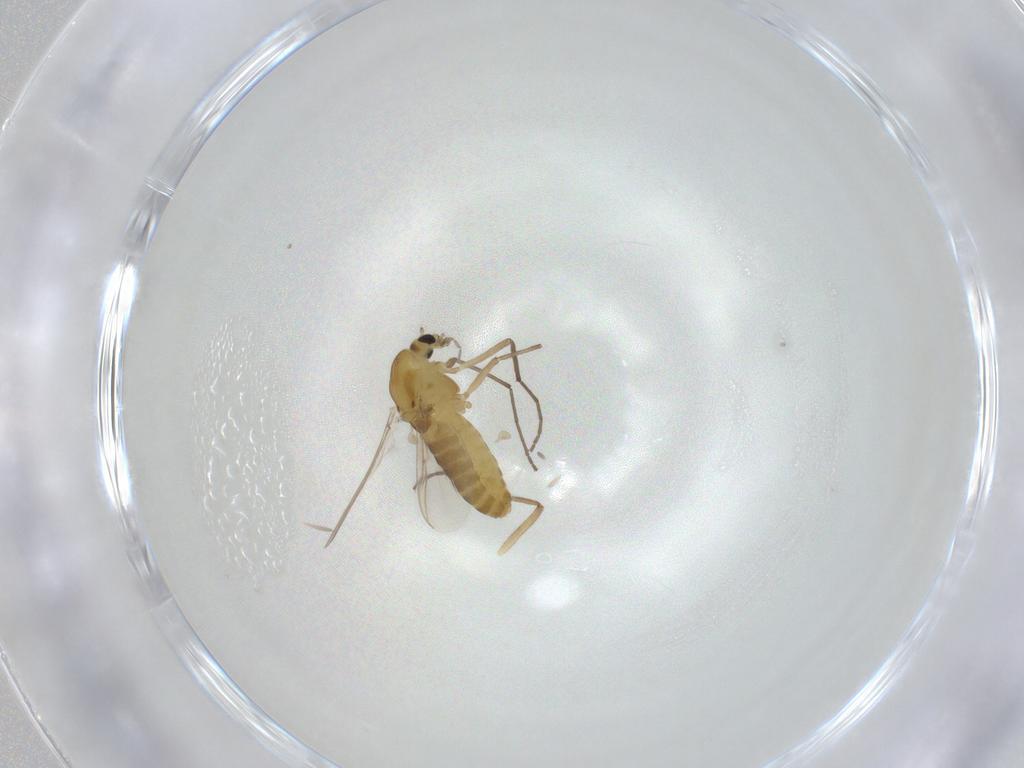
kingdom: Animalia
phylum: Arthropoda
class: Insecta
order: Diptera
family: Chironomidae
